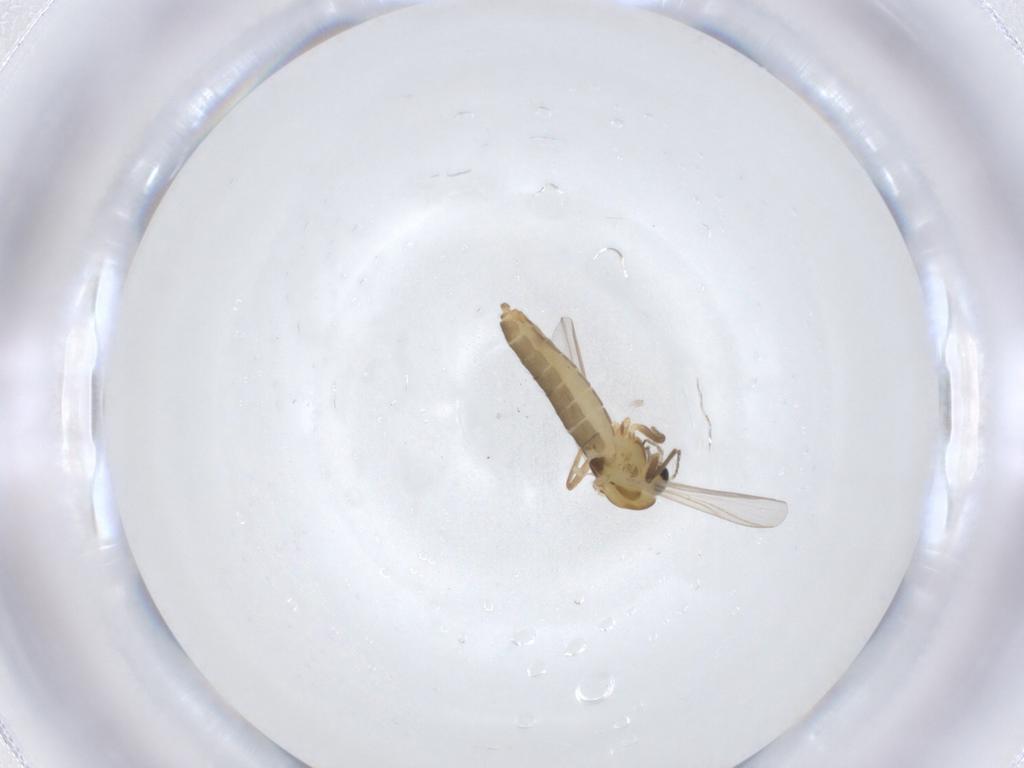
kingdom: Animalia
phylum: Arthropoda
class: Insecta
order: Diptera
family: Chironomidae
